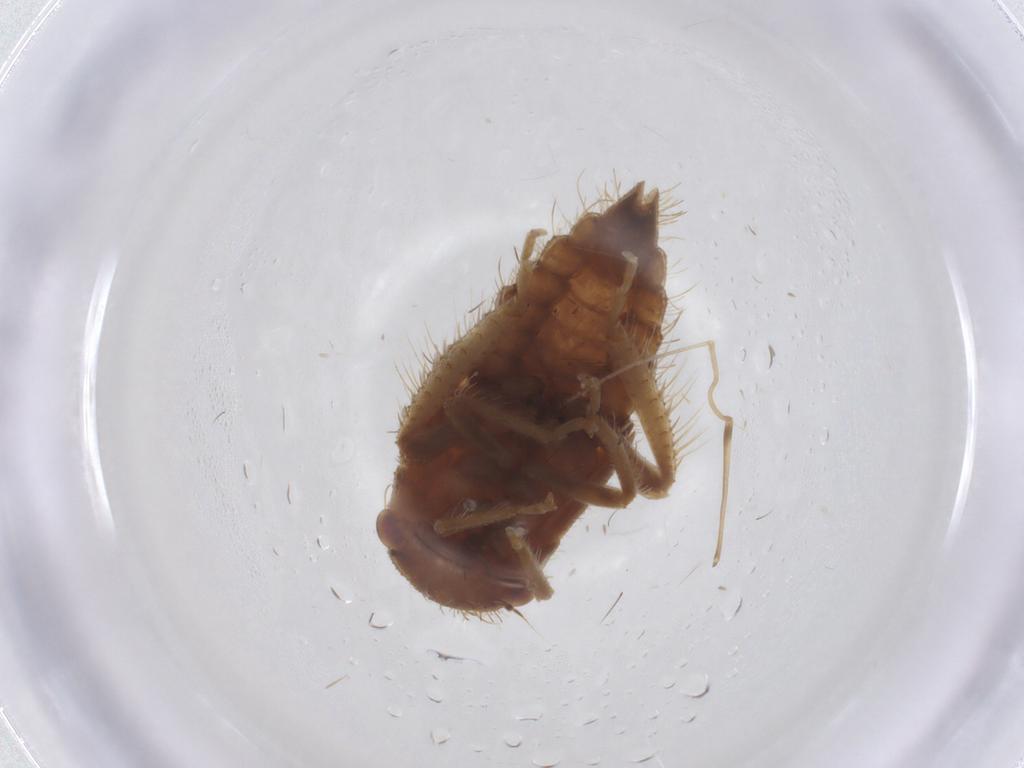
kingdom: Animalia
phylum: Arthropoda
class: Insecta
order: Hemiptera
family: Cicadellidae
